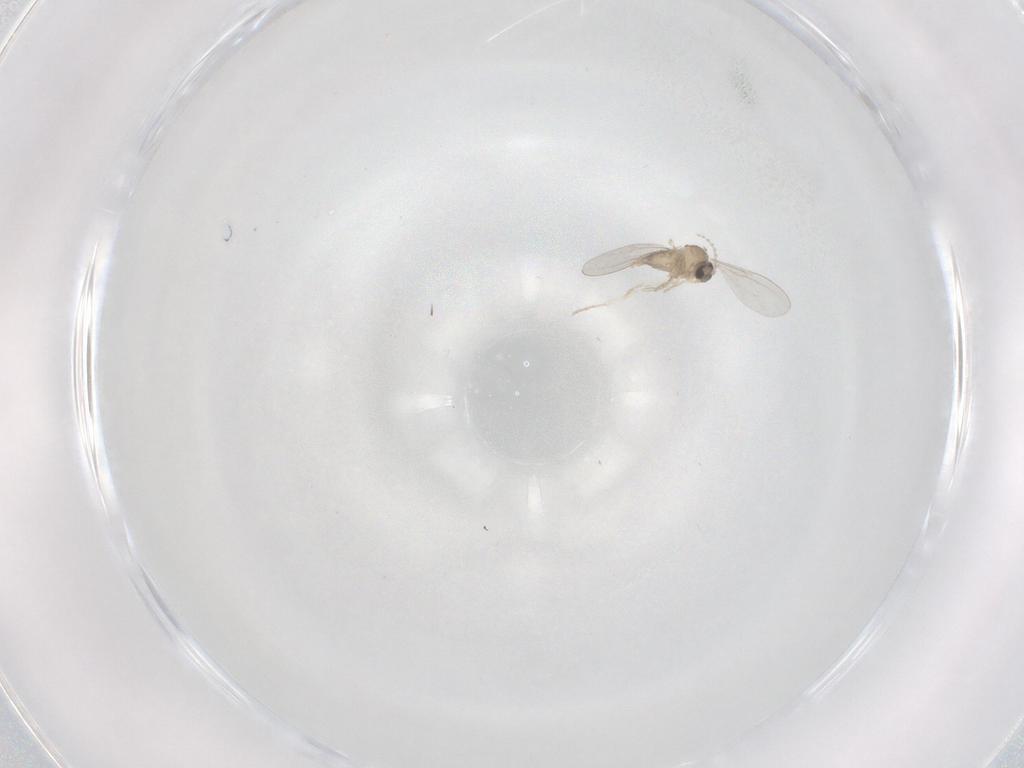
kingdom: Animalia
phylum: Arthropoda
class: Insecta
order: Diptera
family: Cecidomyiidae
